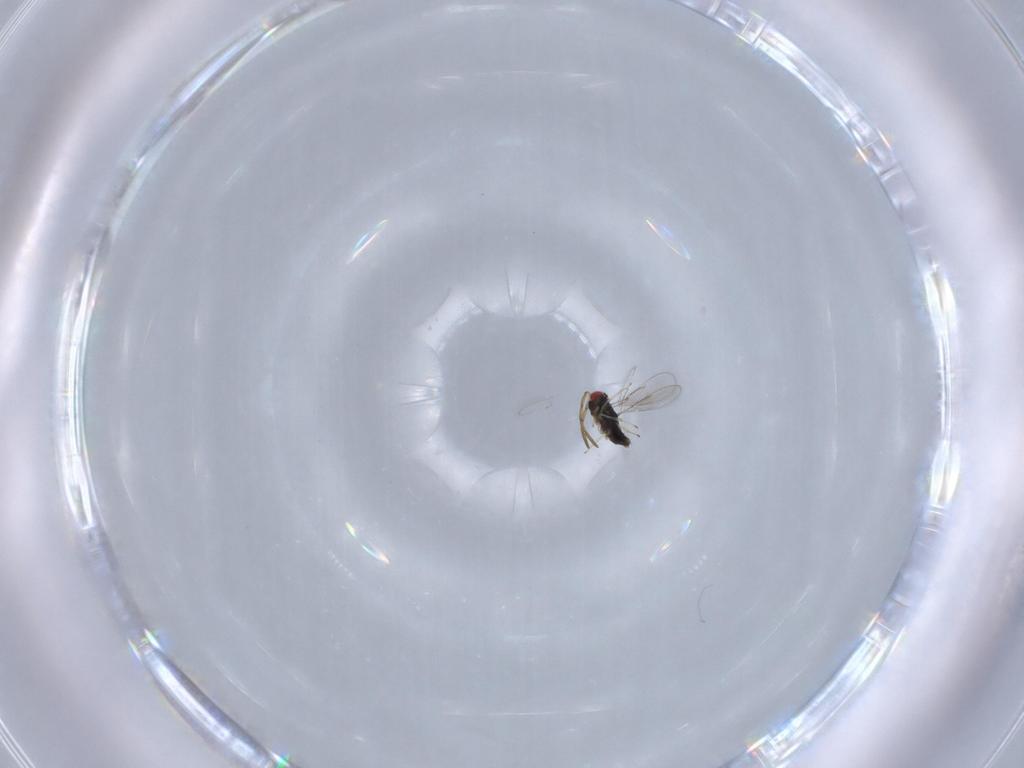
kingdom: Animalia
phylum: Arthropoda
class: Insecta
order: Hymenoptera
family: Azotidae
